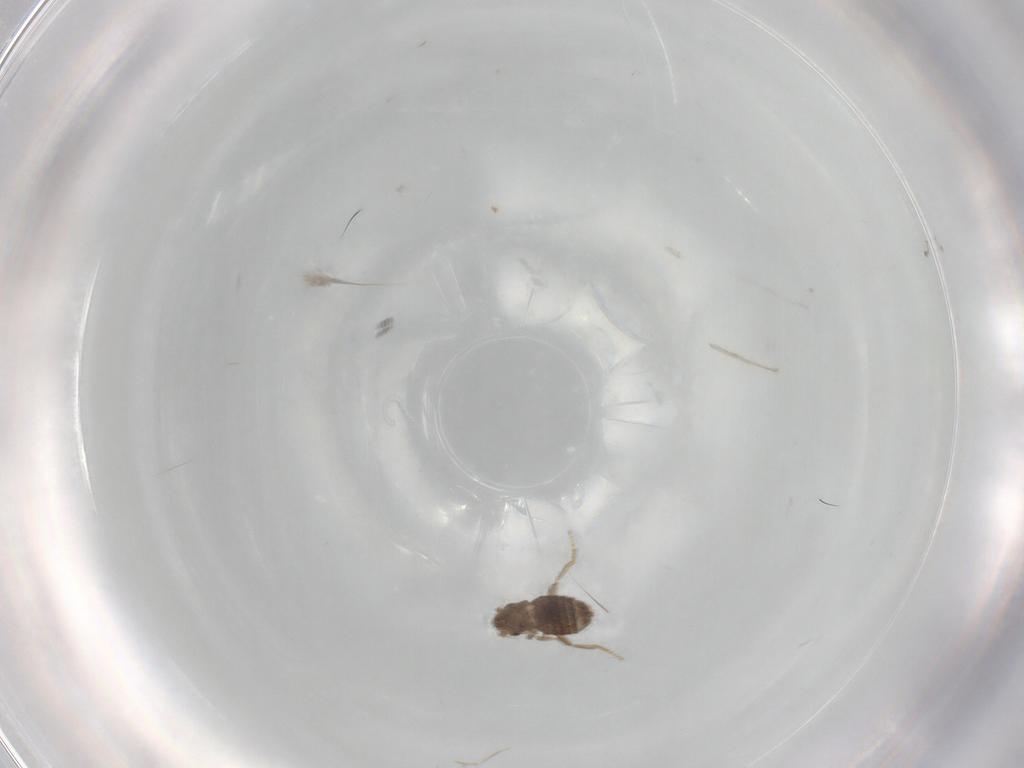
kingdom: Animalia
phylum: Arthropoda
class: Insecta
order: Diptera
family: Sciaridae
